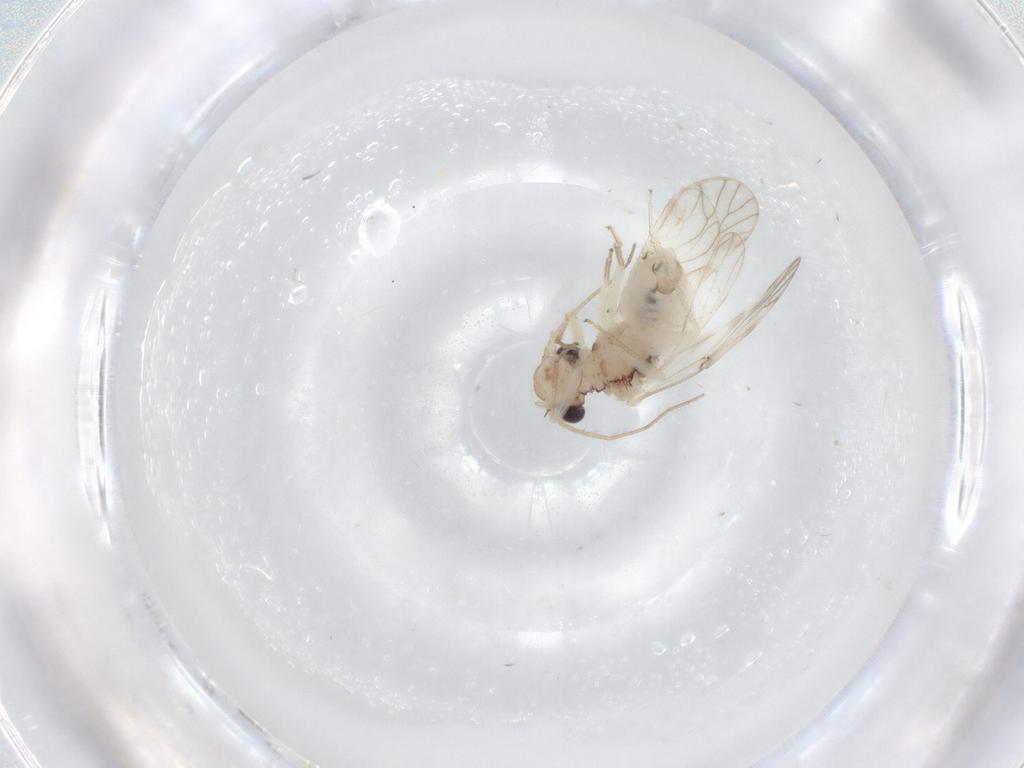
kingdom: Animalia
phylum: Arthropoda
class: Insecta
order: Psocodea
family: Caeciliusidae
